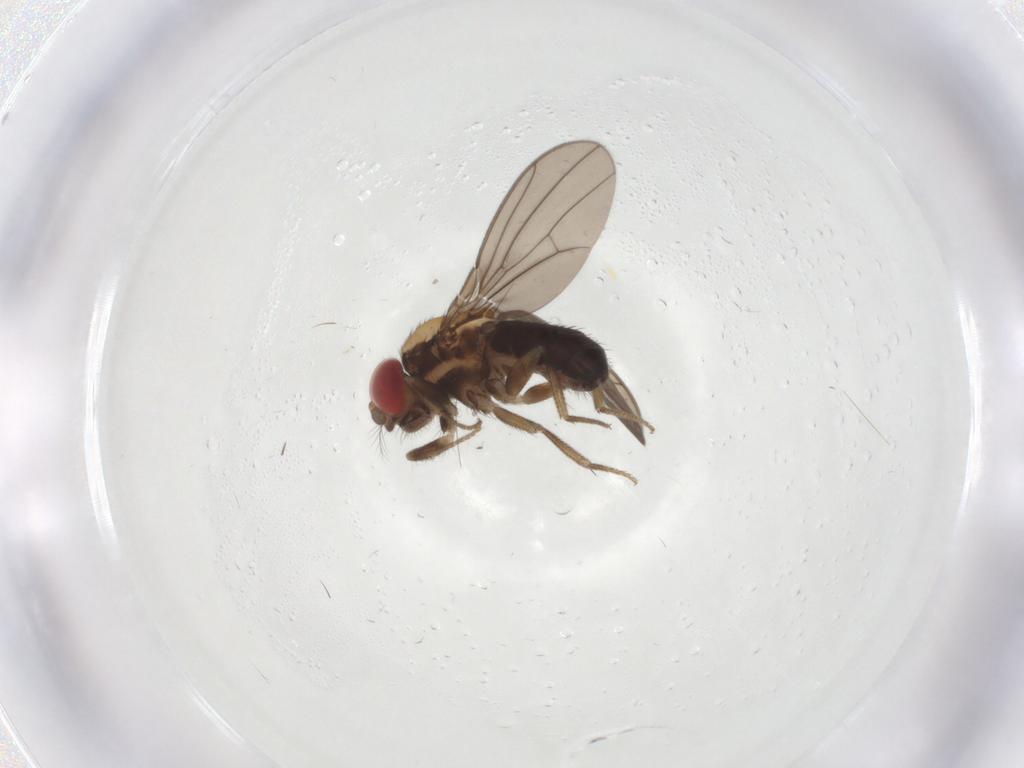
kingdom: Animalia
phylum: Arthropoda
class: Insecta
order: Diptera
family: Drosophilidae
